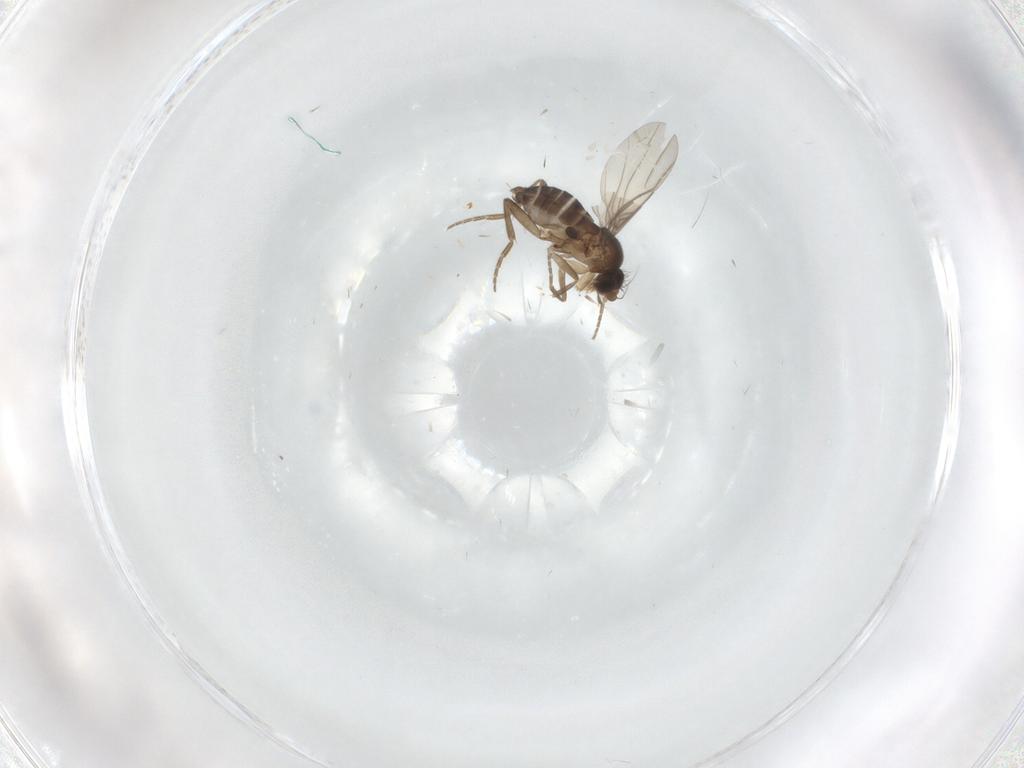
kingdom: Animalia
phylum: Arthropoda
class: Insecta
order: Diptera
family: Phoridae
